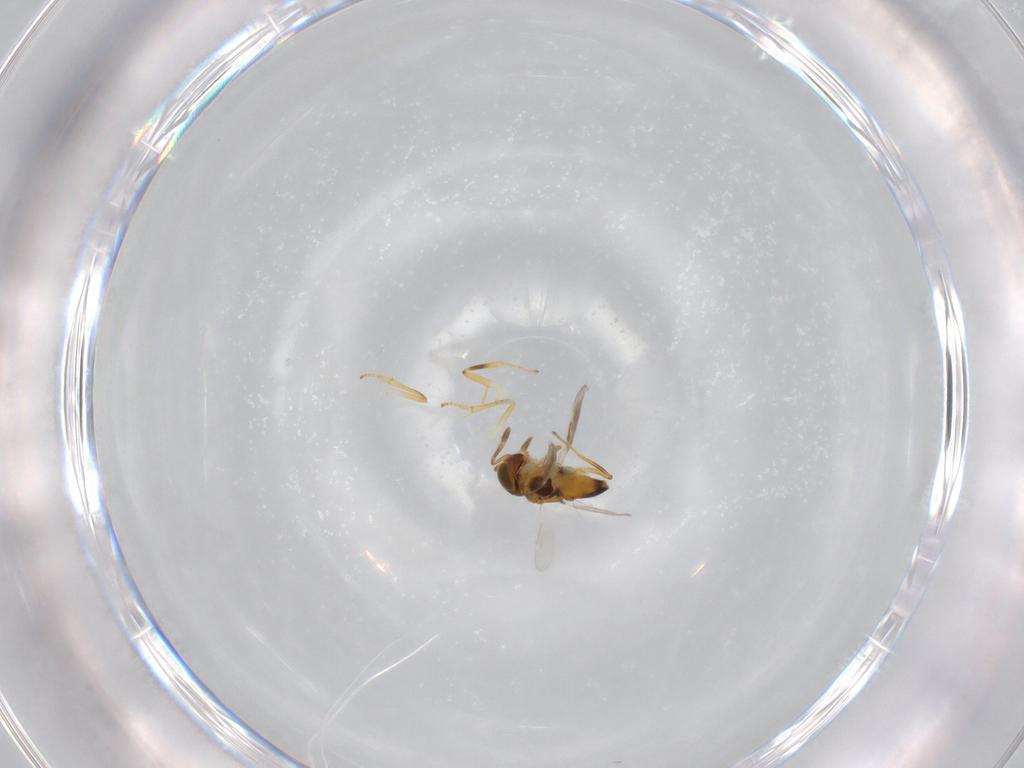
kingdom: Animalia
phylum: Arthropoda
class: Insecta
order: Hymenoptera
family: Encyrtidae
